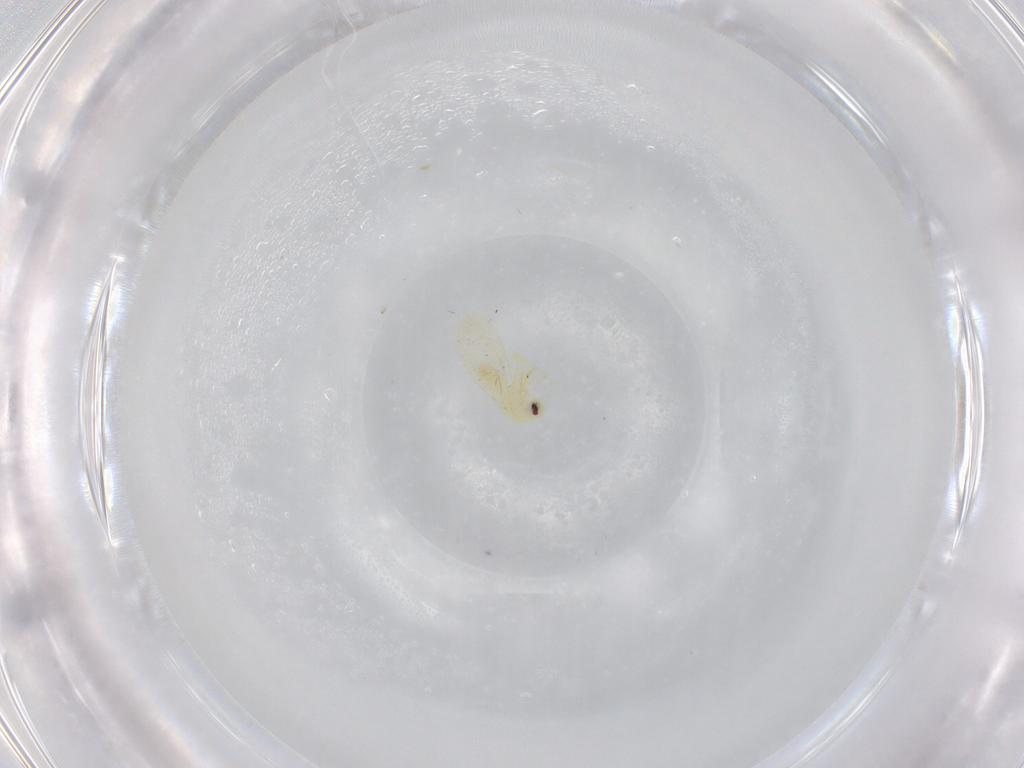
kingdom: Animalia
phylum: Arthropoda
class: Insecta
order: Hemiptera
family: Aleyrodidae
